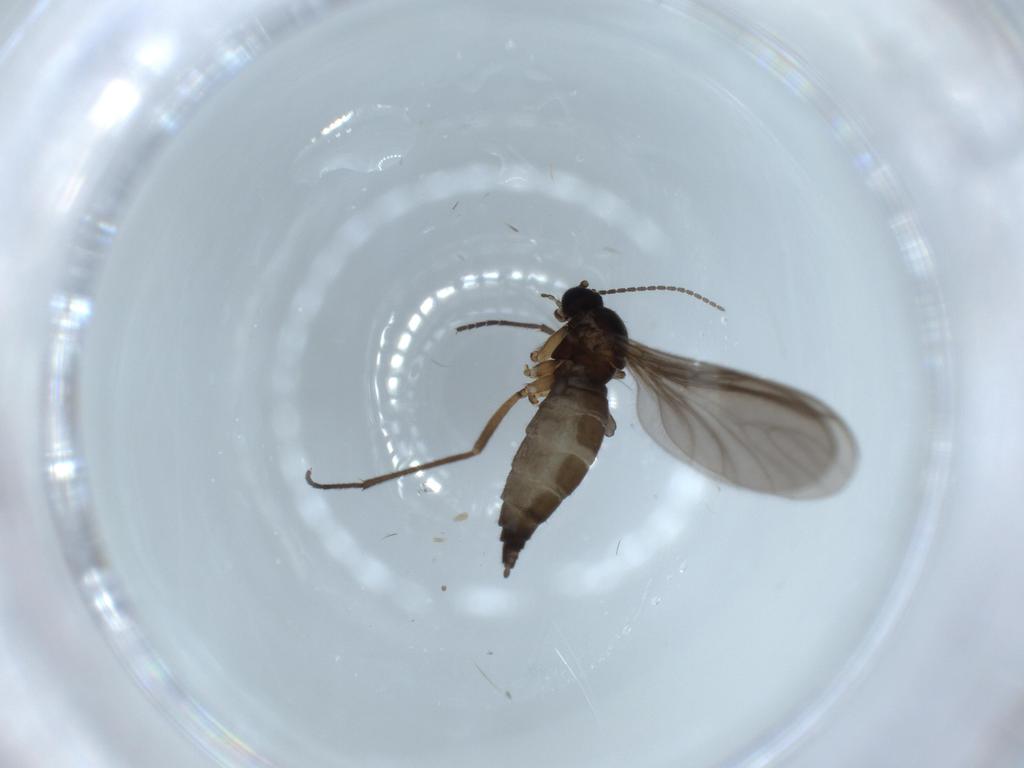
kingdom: Animalia
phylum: Arthropoda
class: Insecta
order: Diptera
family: Sciaridae
